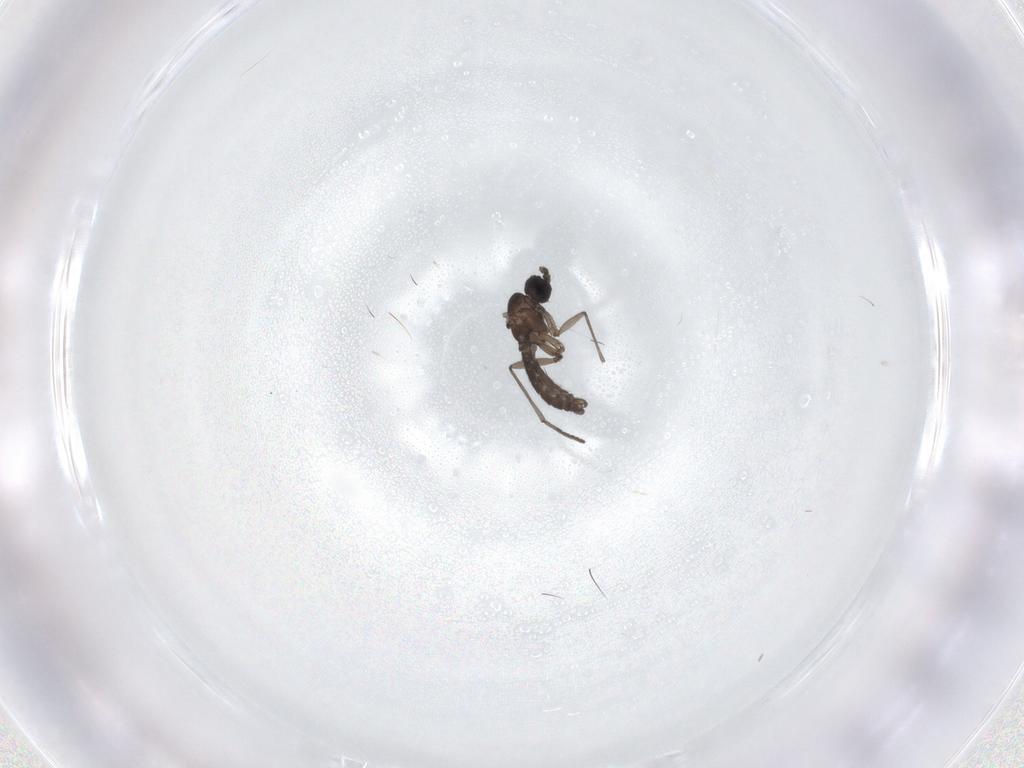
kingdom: Animalia
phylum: Arthropoda
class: Insecta
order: Diptera
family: Sciaridae
